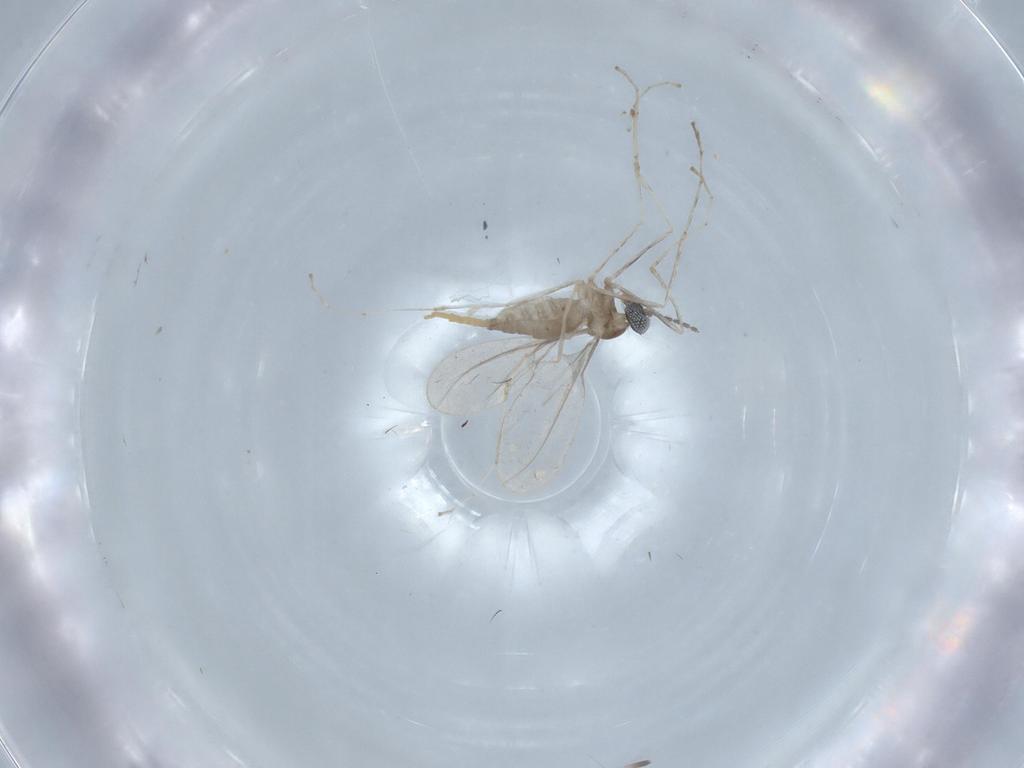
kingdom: Animalia
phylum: Arthropoda
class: Insecta
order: Diptera
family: Cecidomyiidae
